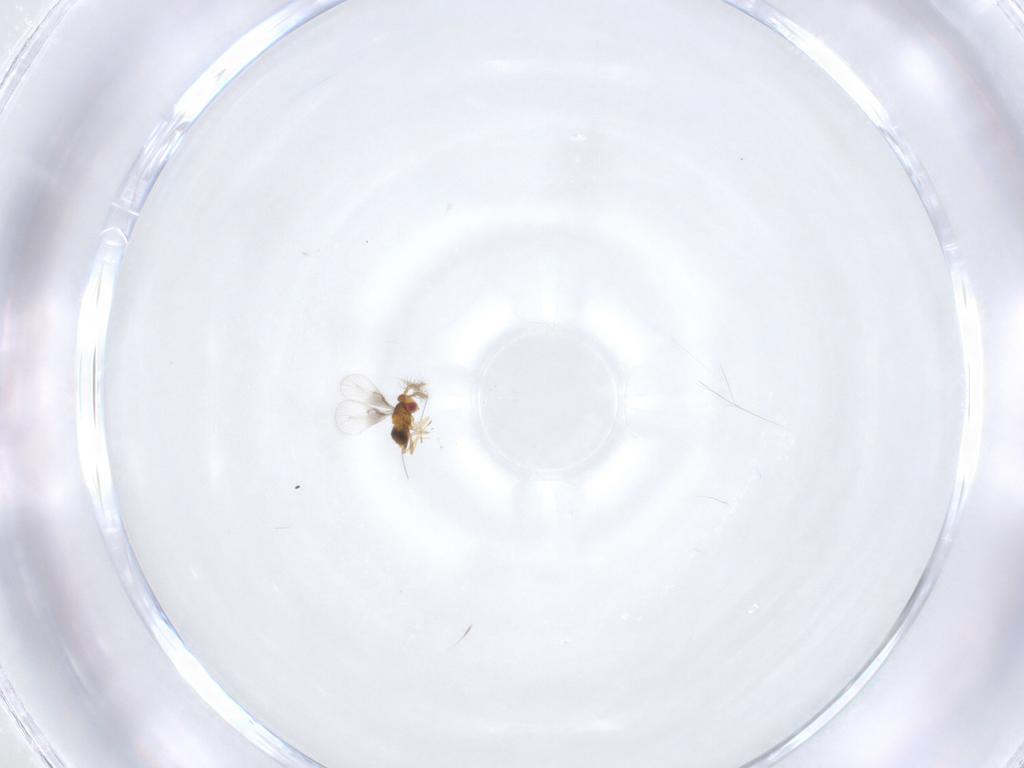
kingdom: Animalia
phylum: Arthropoda
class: Insecta
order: Hymenoptera
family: Trichogrammatidae
